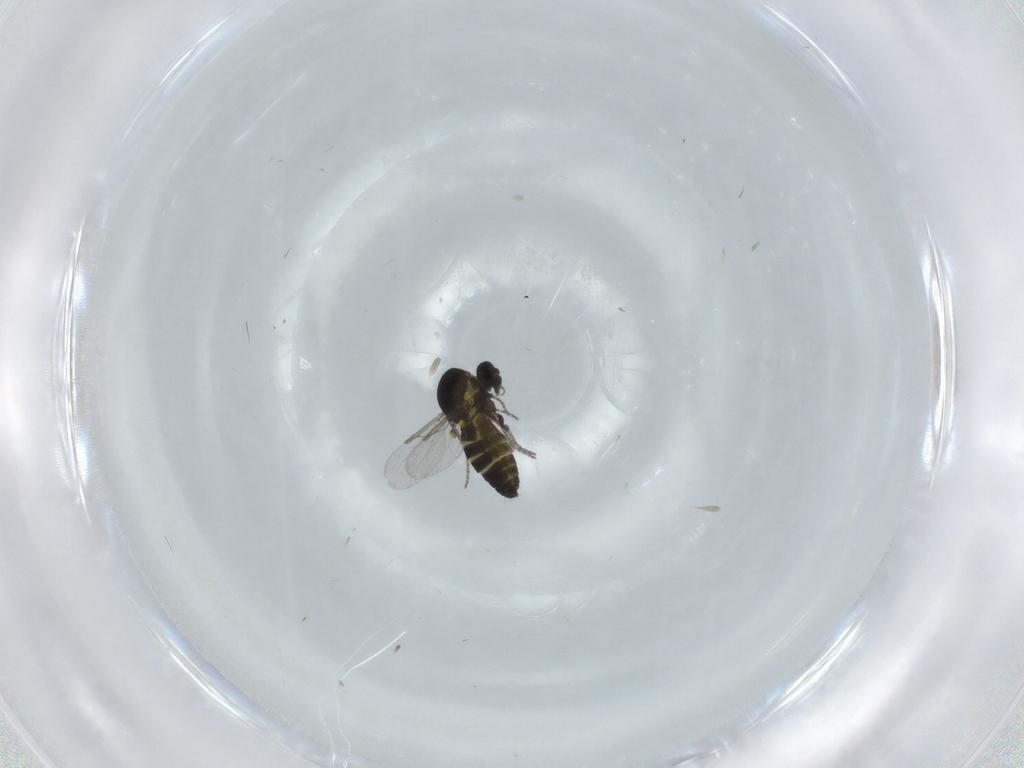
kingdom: Animalia
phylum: Arthropoda
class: Insecta
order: Diptera
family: Ceratopogonidae
